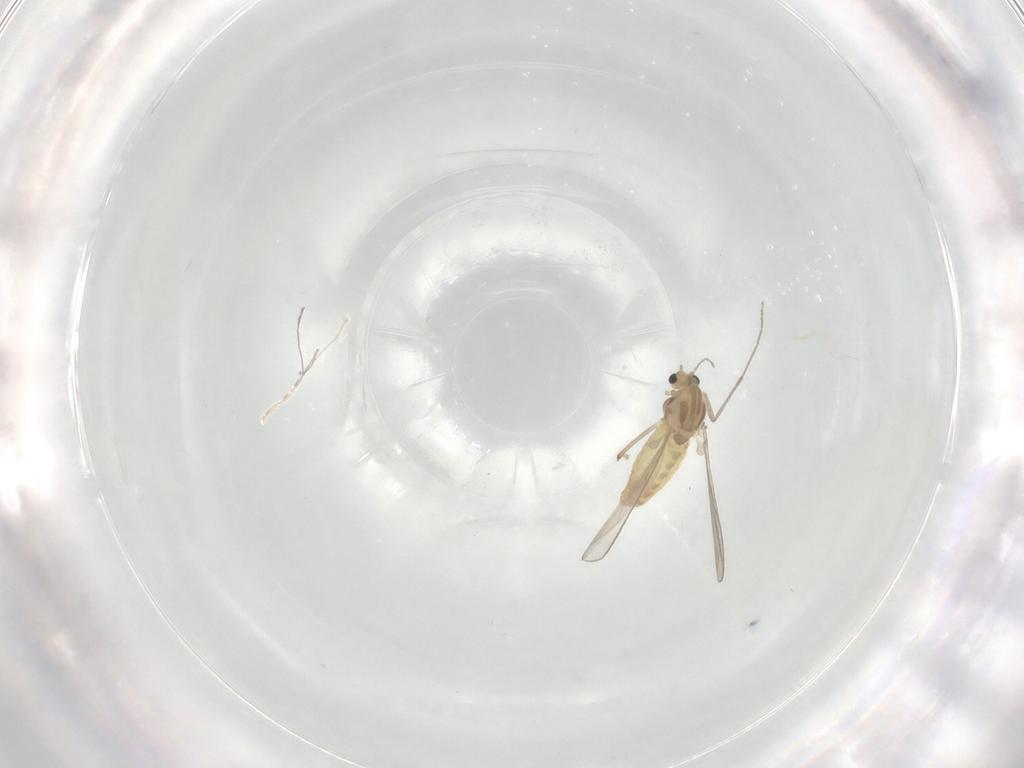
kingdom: Animalia
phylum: Arthropoda
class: Insecta
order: Diptera
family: Chironomidae
